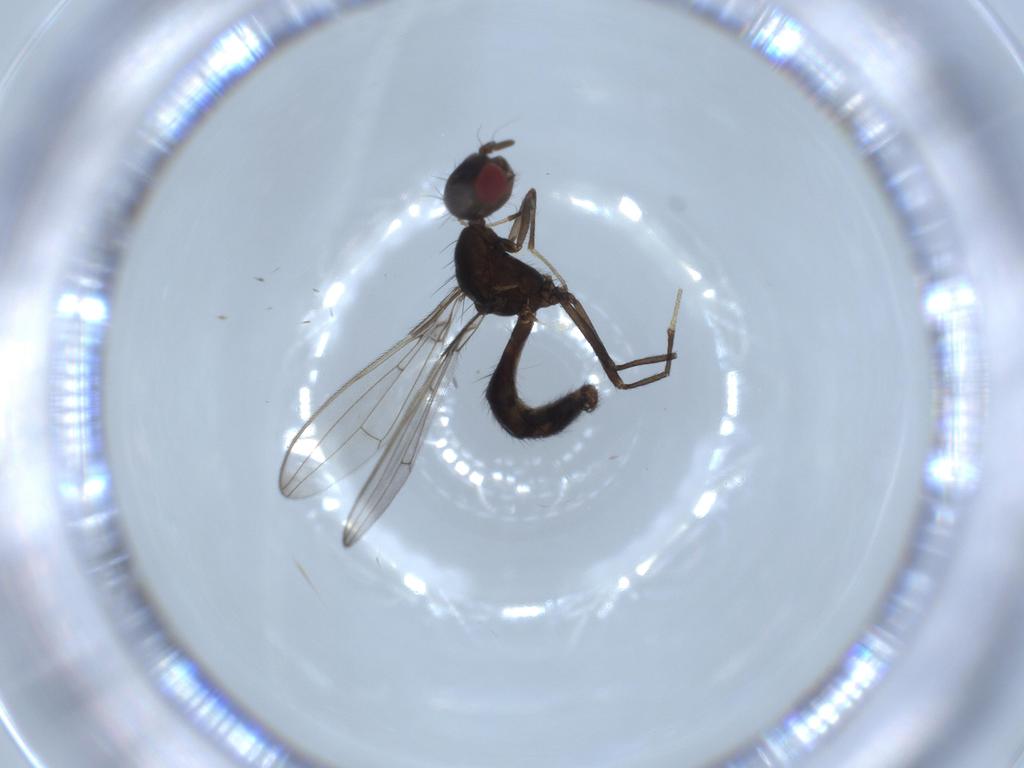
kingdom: Animalia
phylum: Arthropoda
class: Insecta
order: Diptera
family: Richardiidae
